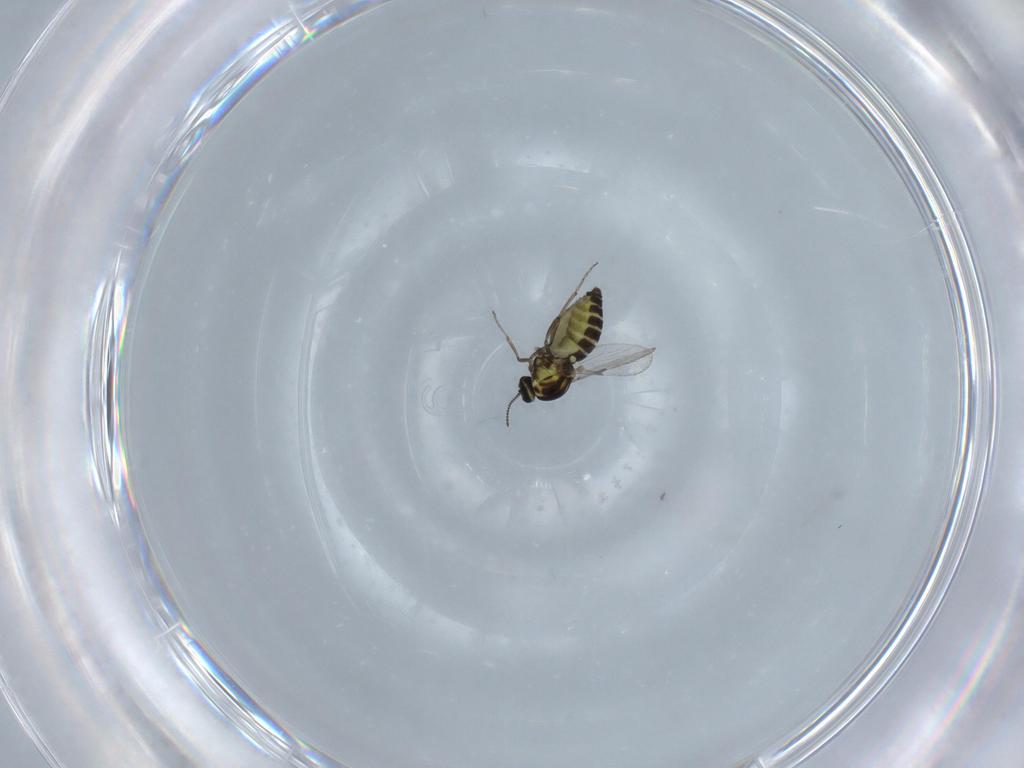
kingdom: Animalia
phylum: Arthropoda
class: Insecta
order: Diptera
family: Ceratopogonidae
